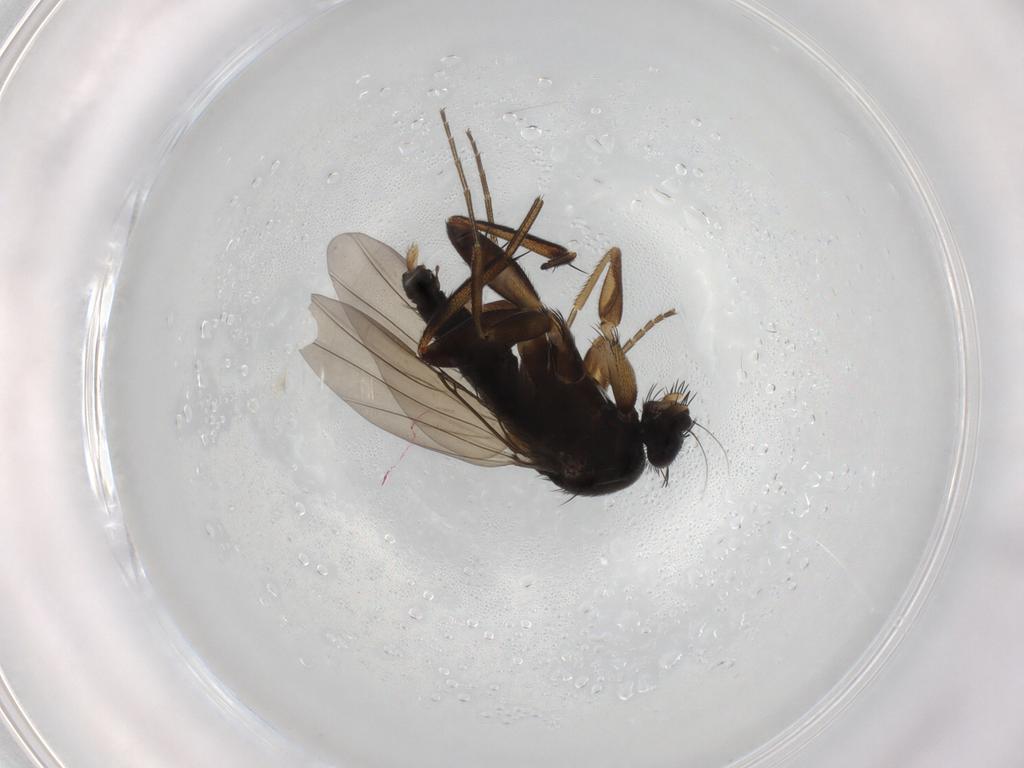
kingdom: Animalia
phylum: Arthropoda
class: Insecta
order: Diptera
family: Phoridae
